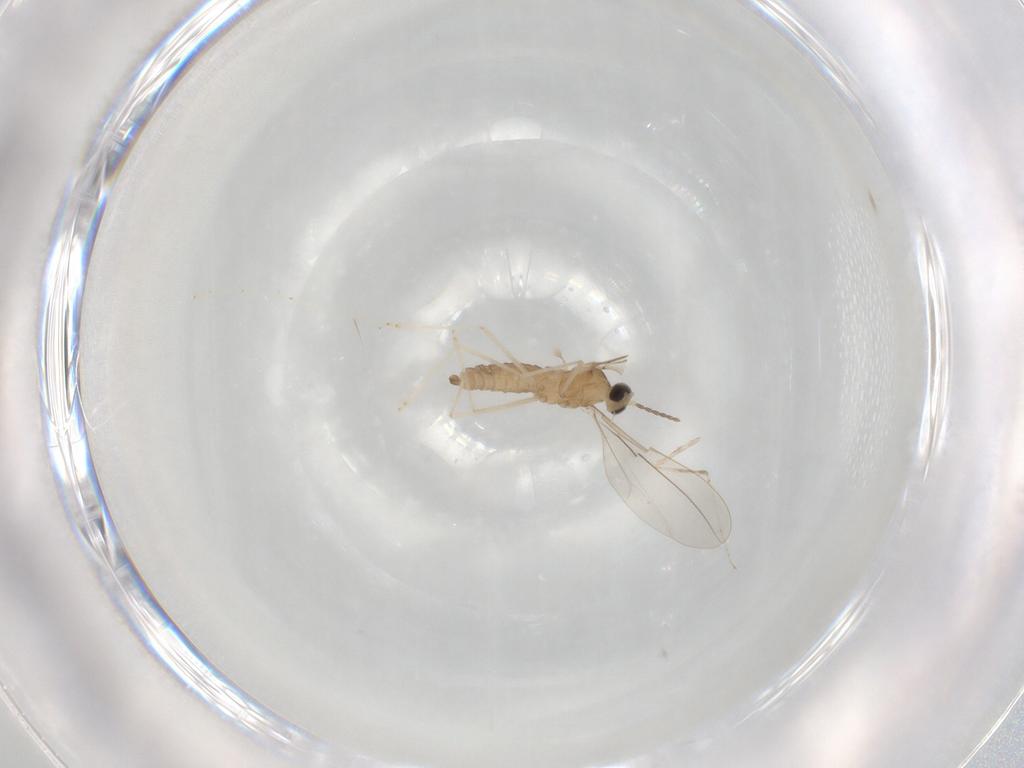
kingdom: Animalia
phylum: Arthropoda
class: Insecta
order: Diptera
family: Cecidomyiidae
